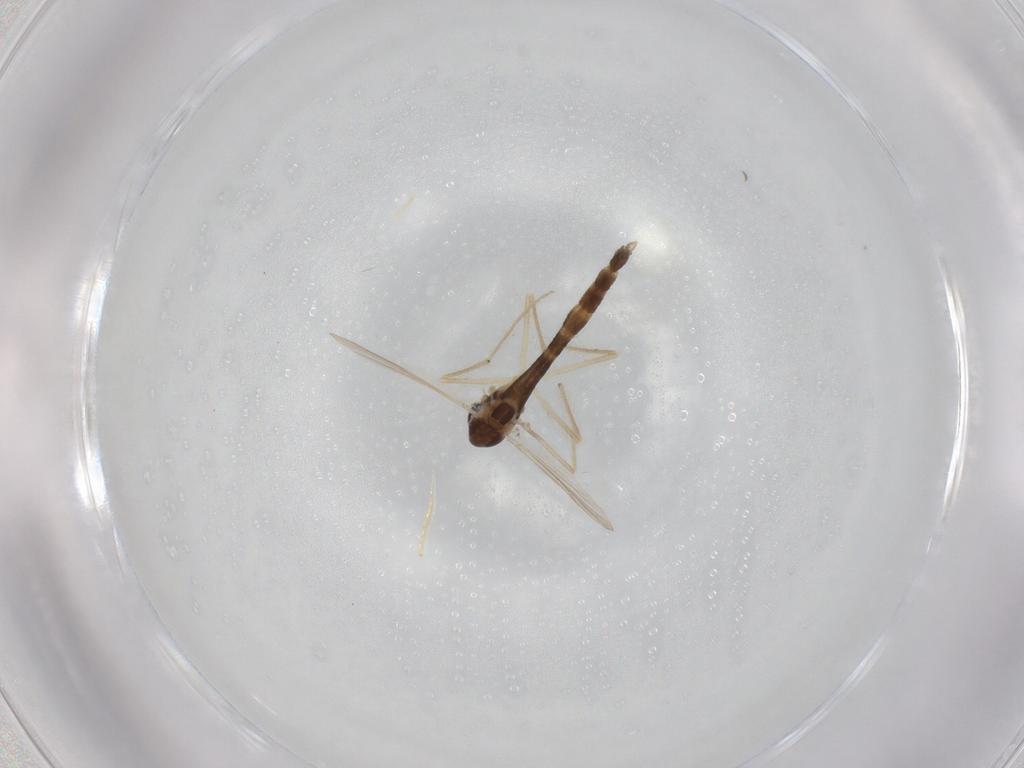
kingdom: Animalia
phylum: Arthropoda
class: Insecta
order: Diptera
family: Chironomidae
